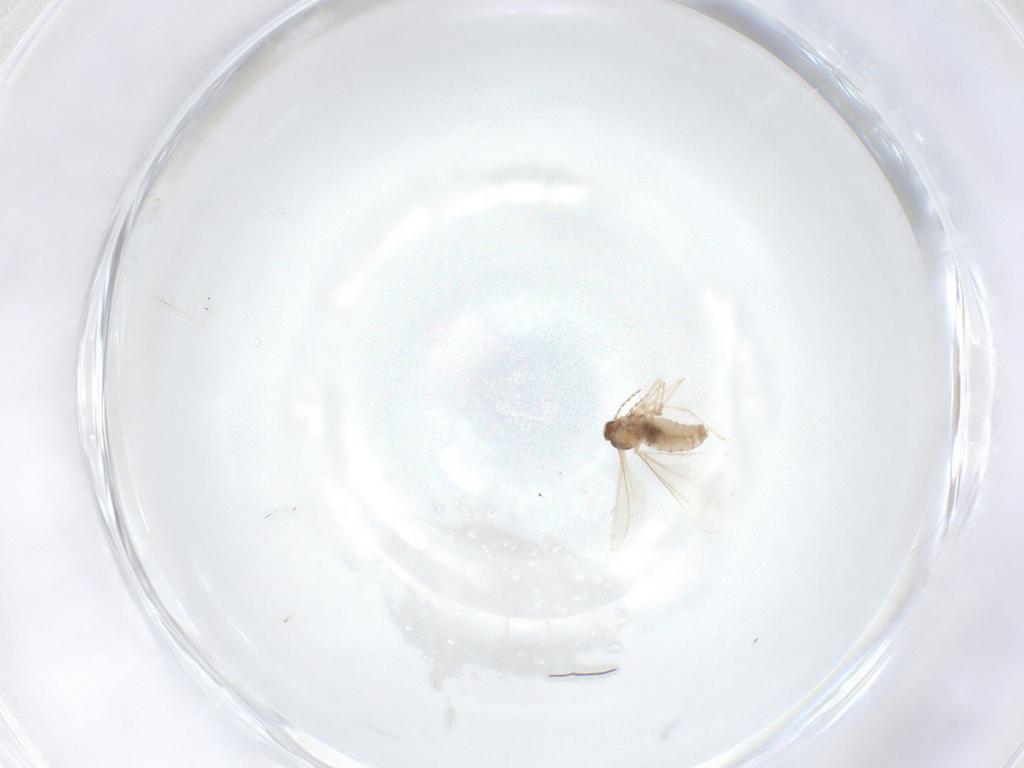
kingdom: Animalia
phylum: Arthropoda
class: Insecta
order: Diptera
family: Cecidomyiidae
